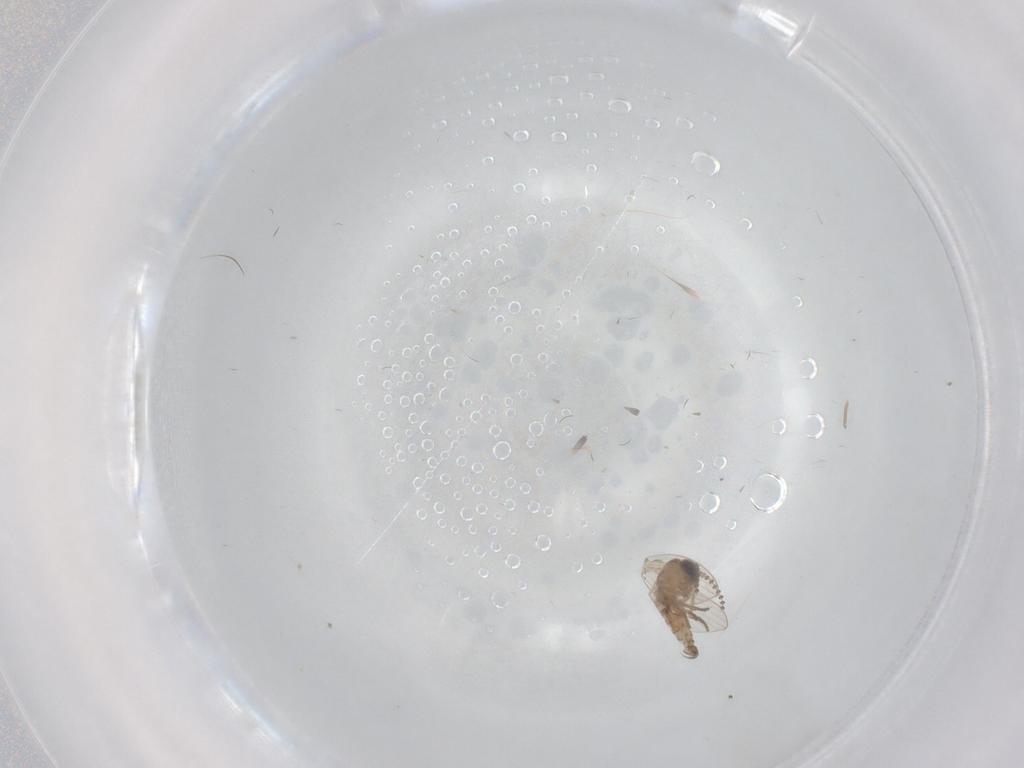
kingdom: Animalia
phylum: Arthropoda
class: Insecta
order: Diptera
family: Psychodidae
